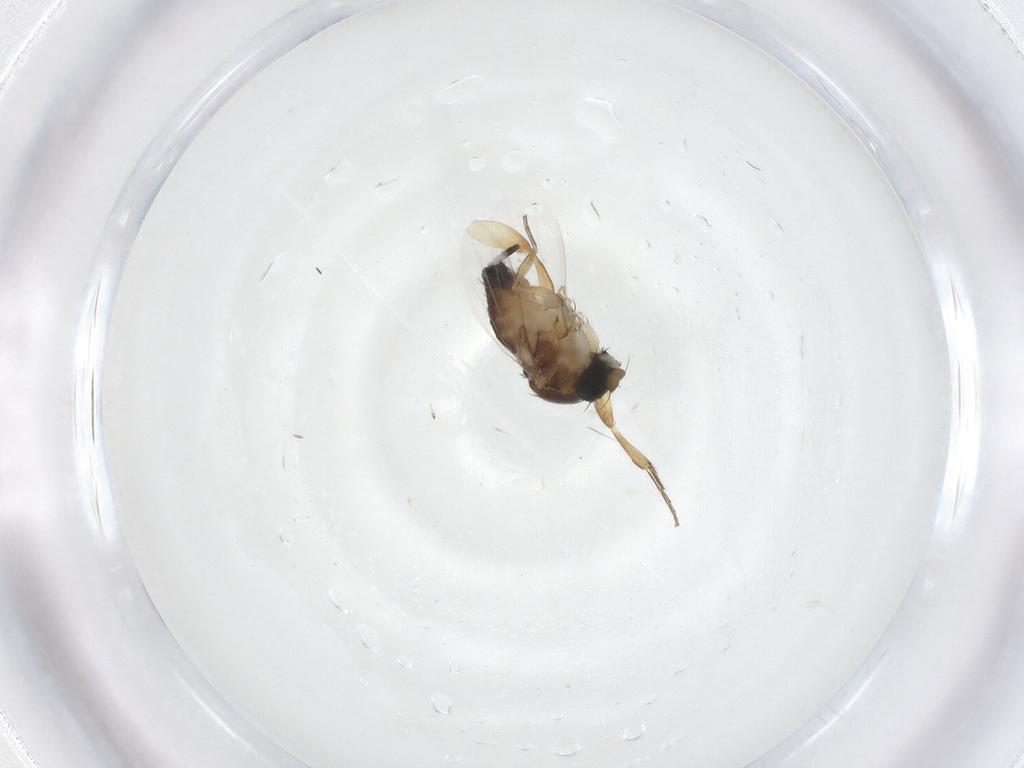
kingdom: Animalia
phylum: Arthropoda
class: Insecta
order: Diptera
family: Phoridae
